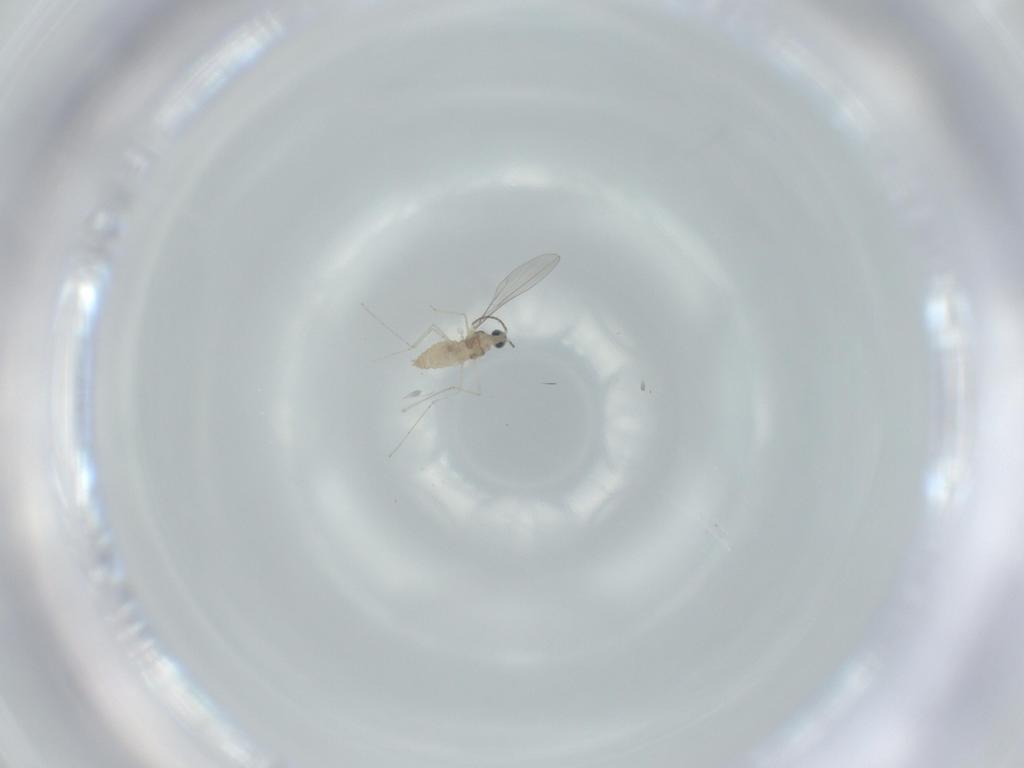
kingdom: Animalia
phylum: Arthropoda
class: Insecta
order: Diptera
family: Cecidomyiidae
